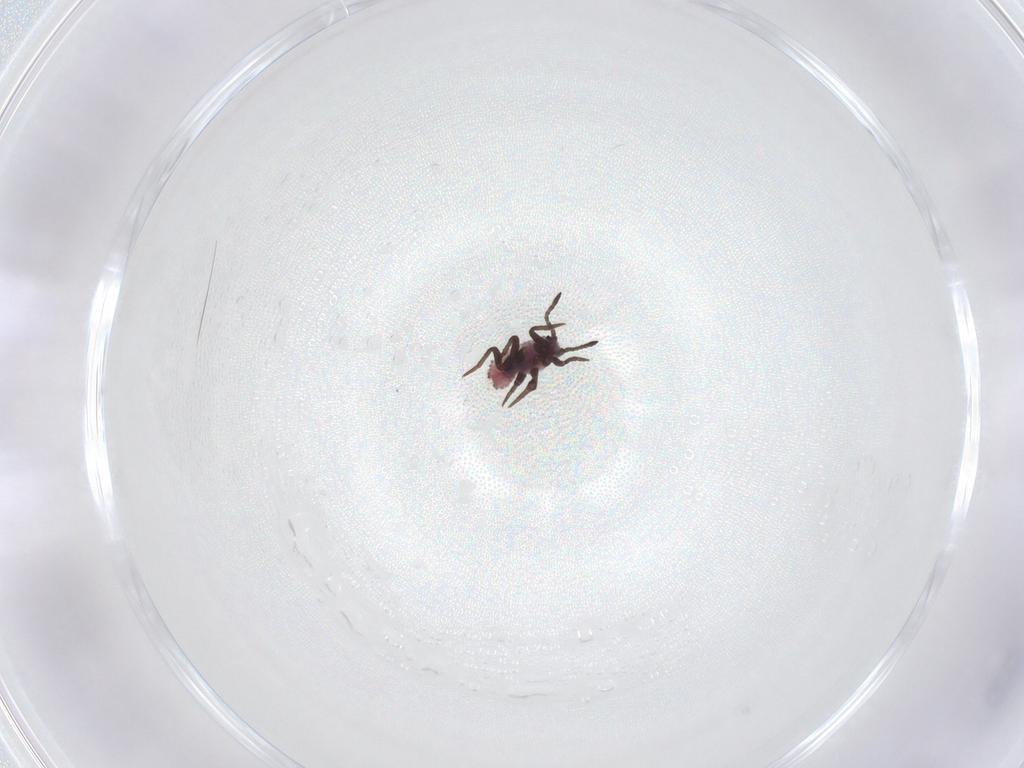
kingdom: Animalia
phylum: Arthropoda
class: Insecta
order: Hemiptera
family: Putoidae
